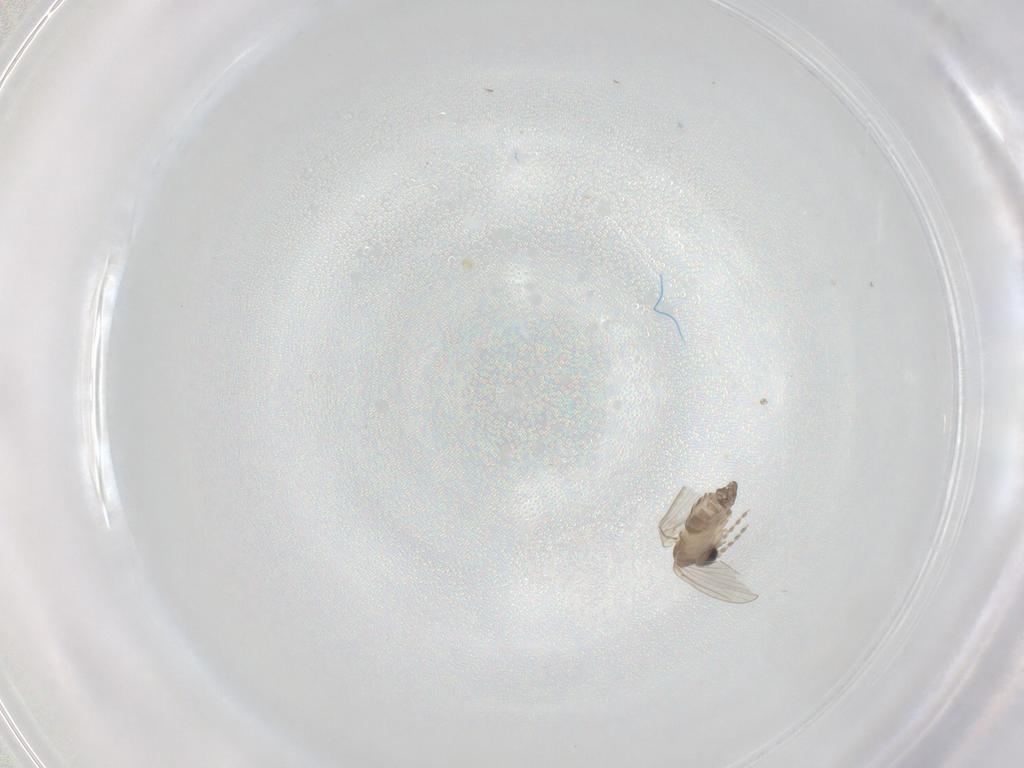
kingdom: Animalia
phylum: Arthropoda
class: Insecta
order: Diptera
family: Psychodidae
